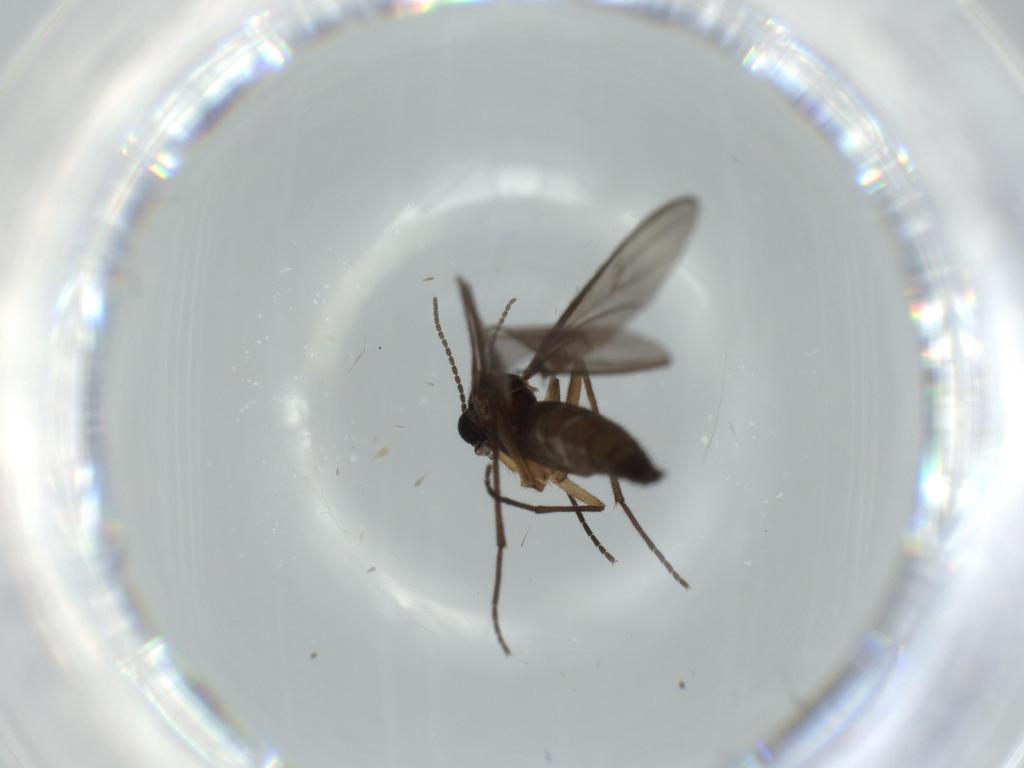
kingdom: Animalia
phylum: Arthropoda
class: Insecta
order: Diptera
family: Sciaridae
